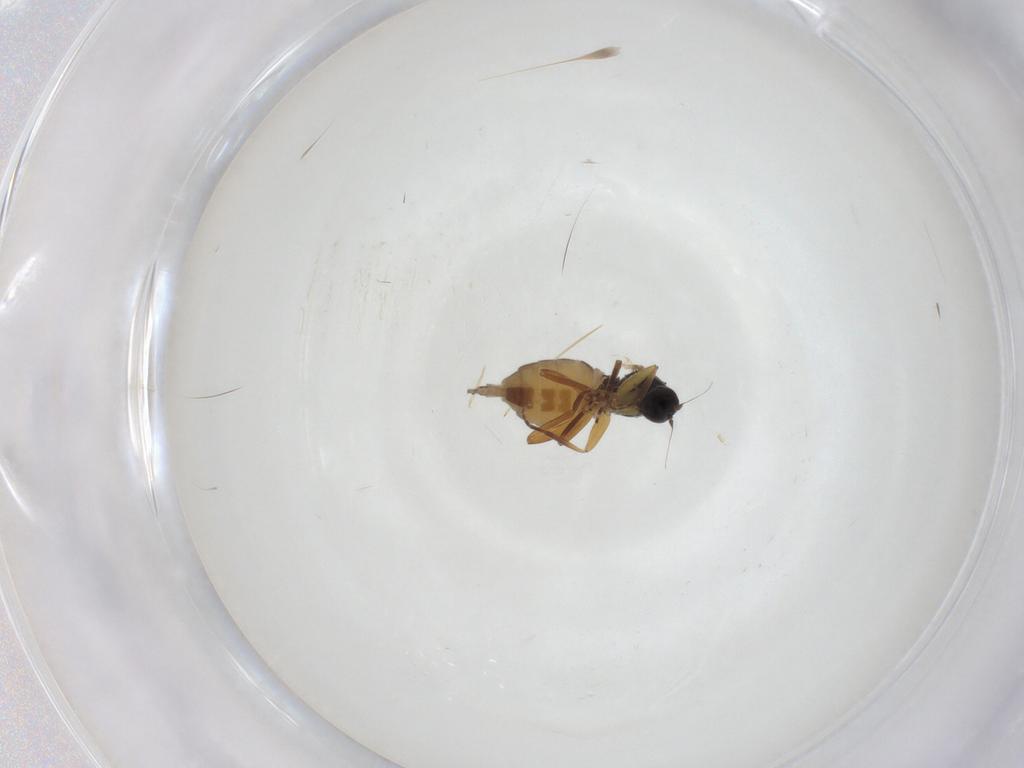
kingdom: Animalia
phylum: Arthropoda
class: Insecta
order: Diptera
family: Hybotidae
